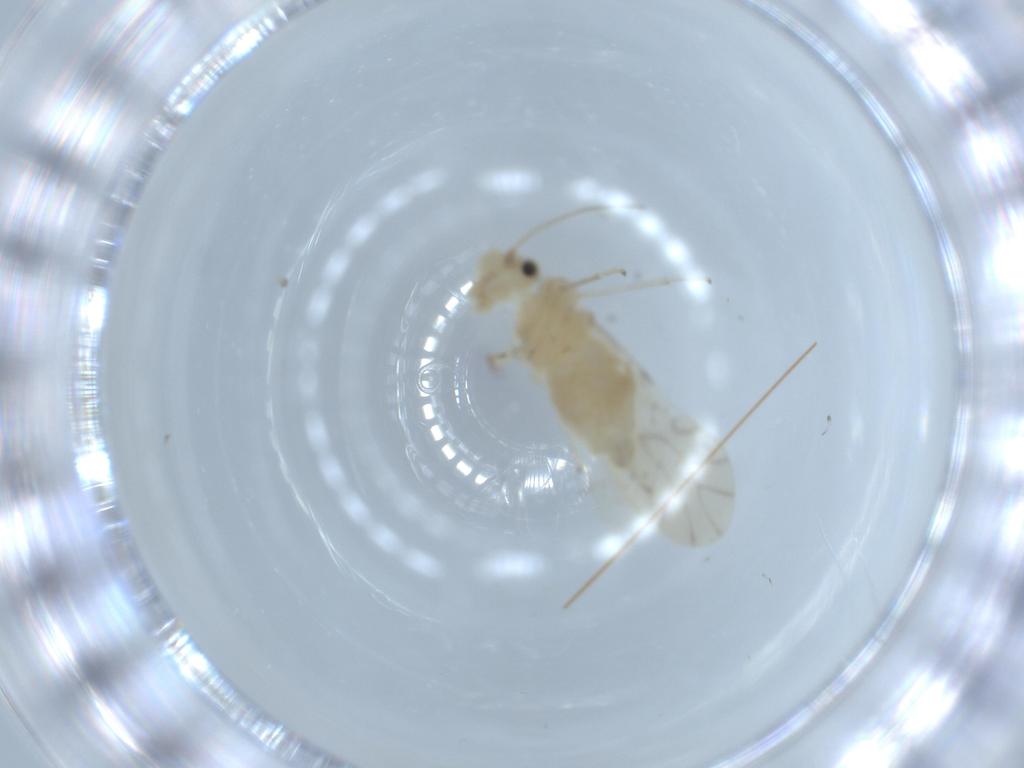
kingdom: Animalia
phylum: Arthropoda
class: Insecta
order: Psocodea
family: Caeciliusidae
